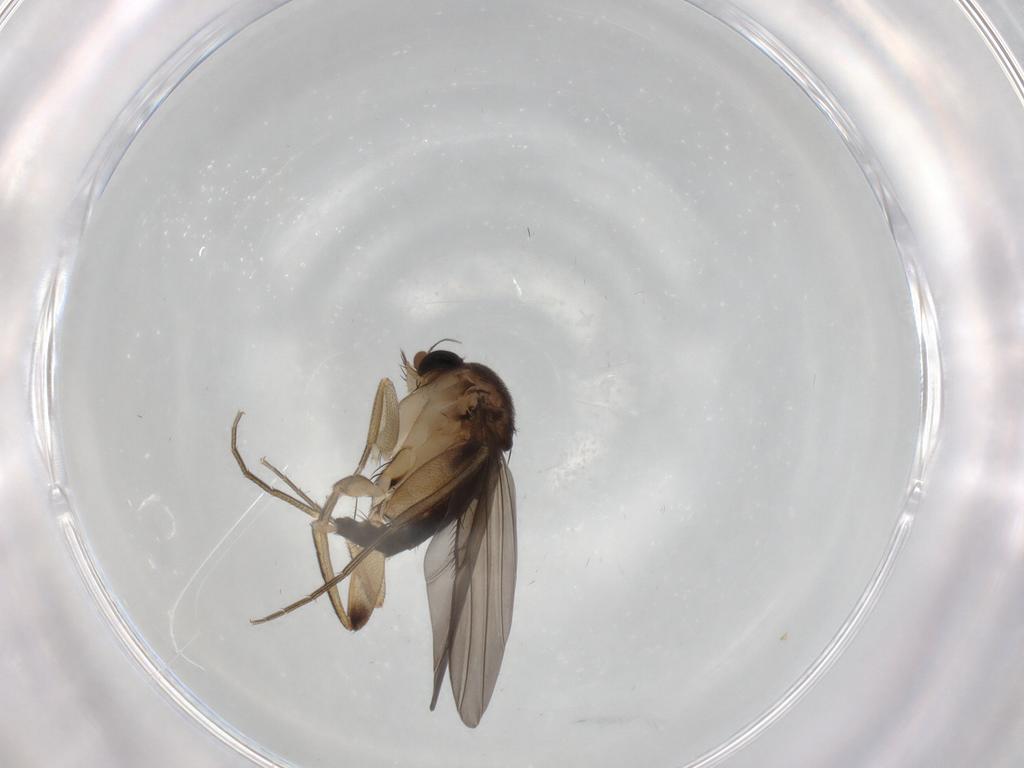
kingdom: Animalia
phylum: Arthropoda
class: Insecta
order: Diptera
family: Phoridae
